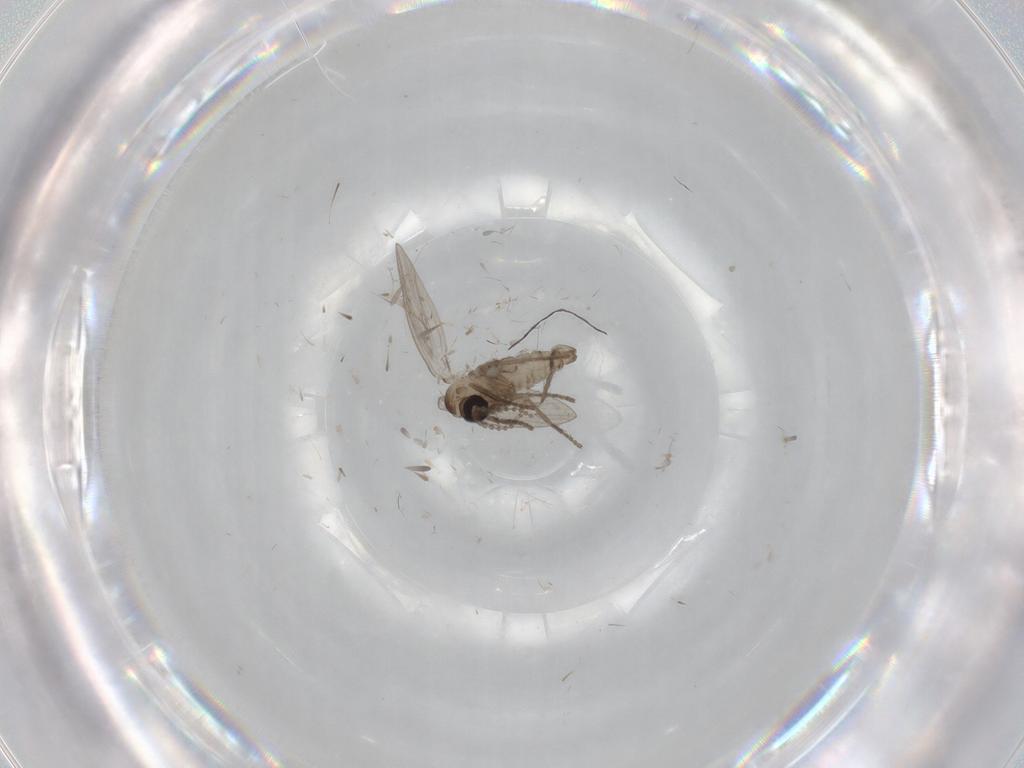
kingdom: Animalia
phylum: Arthropoda
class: Insecta
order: Diptera
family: Psychodidae
